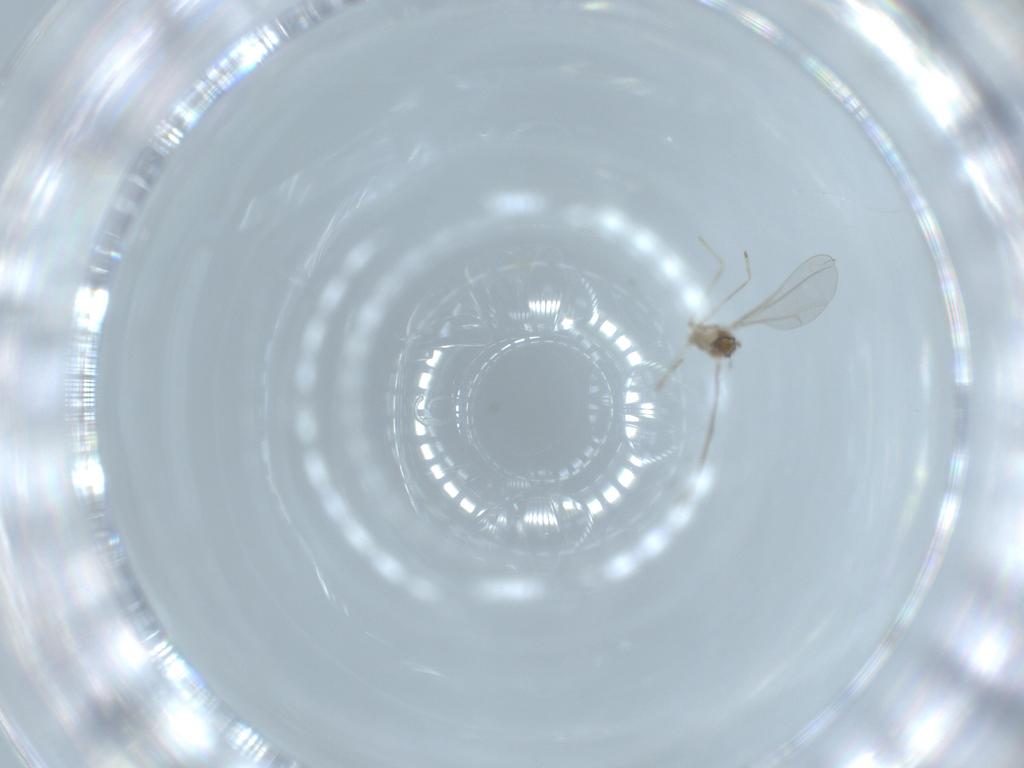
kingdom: Animalia
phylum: Arthropoda
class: Insecta
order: Diptera
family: Cecidomyiidae
